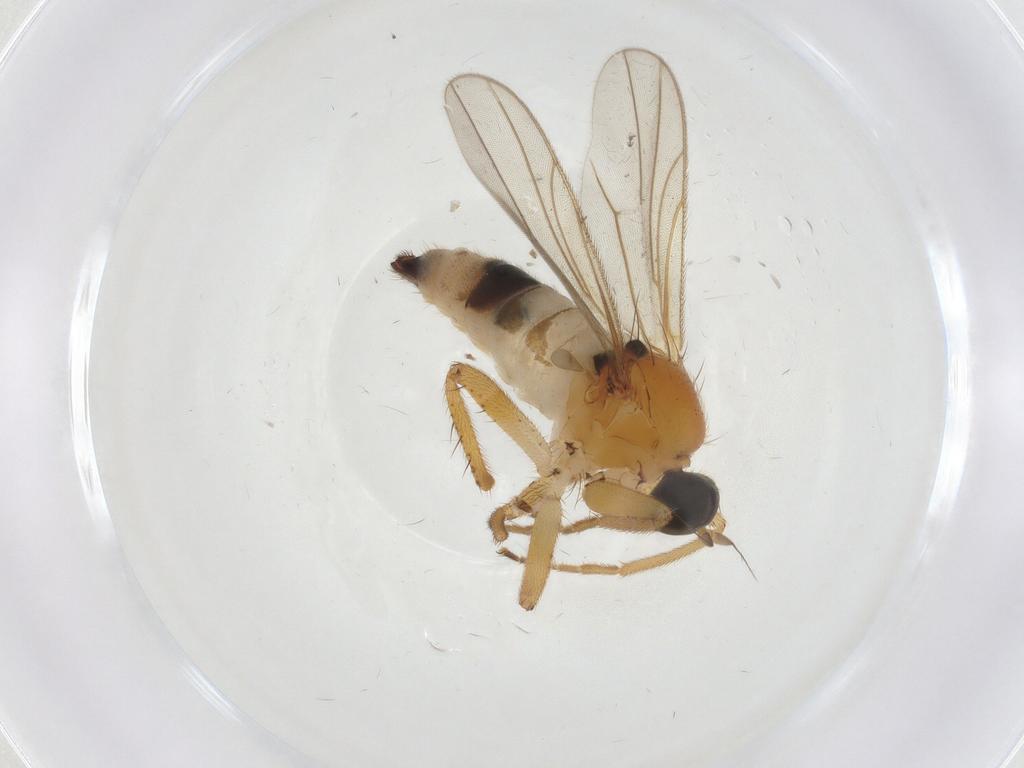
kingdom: Animalia
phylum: Arthropoda
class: Insecta
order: Diptera
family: Hybotidae
